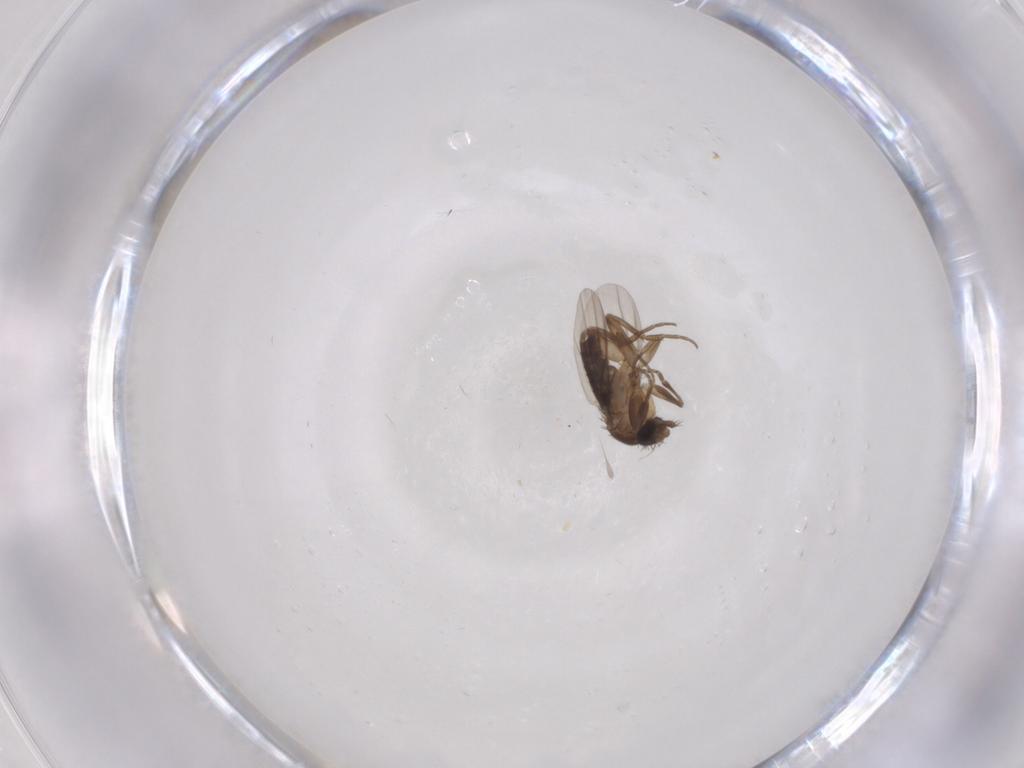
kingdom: Animalia
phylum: Arthropoda
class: Insecta
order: Diptera
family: Phoridae
